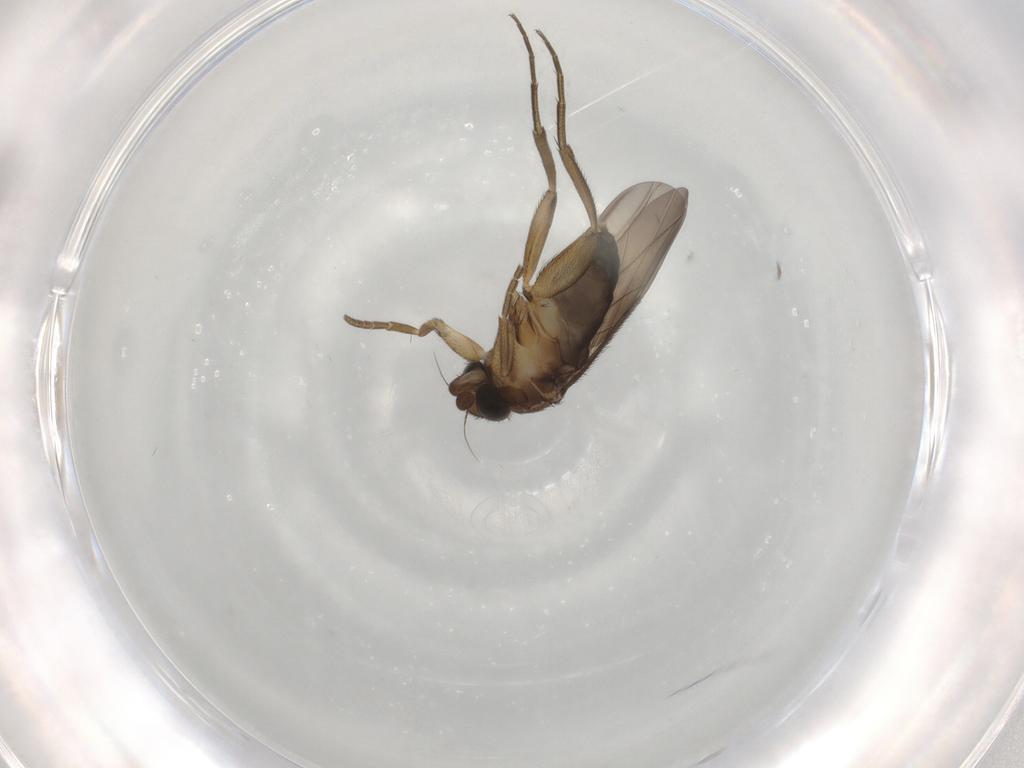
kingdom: Animalia
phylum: Arthropoda
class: Insecta
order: Diptera
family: Phoridae
